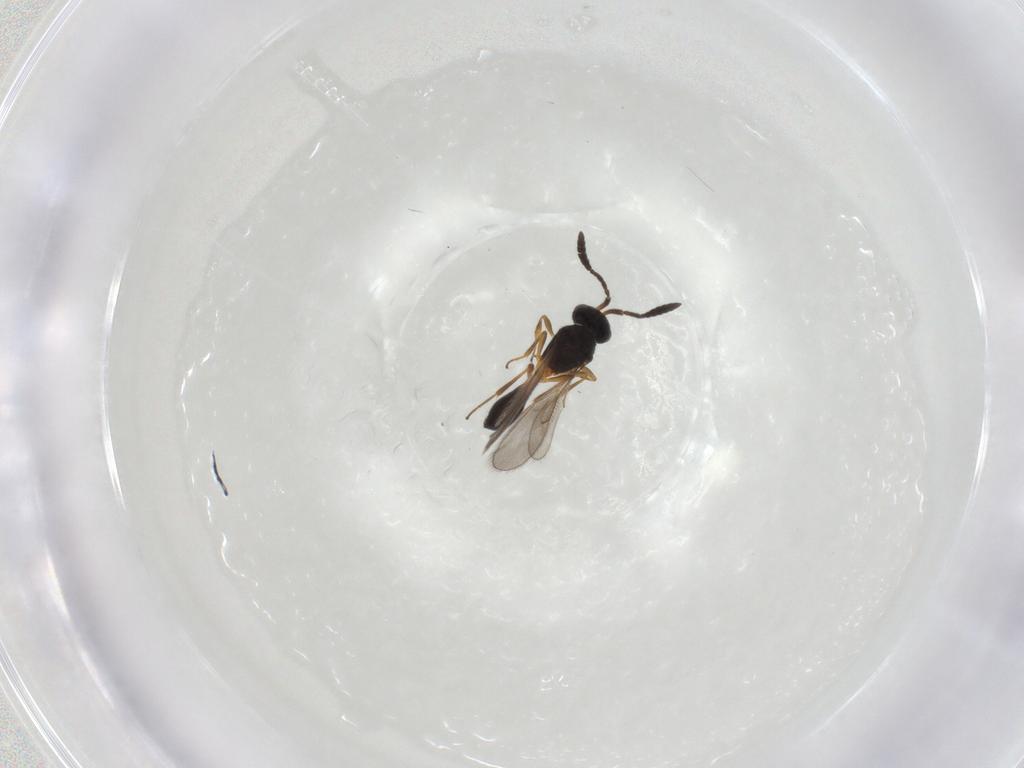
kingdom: Animalia
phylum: Arthropoda
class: Insecta
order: Hymenoptera
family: Scelionidae
